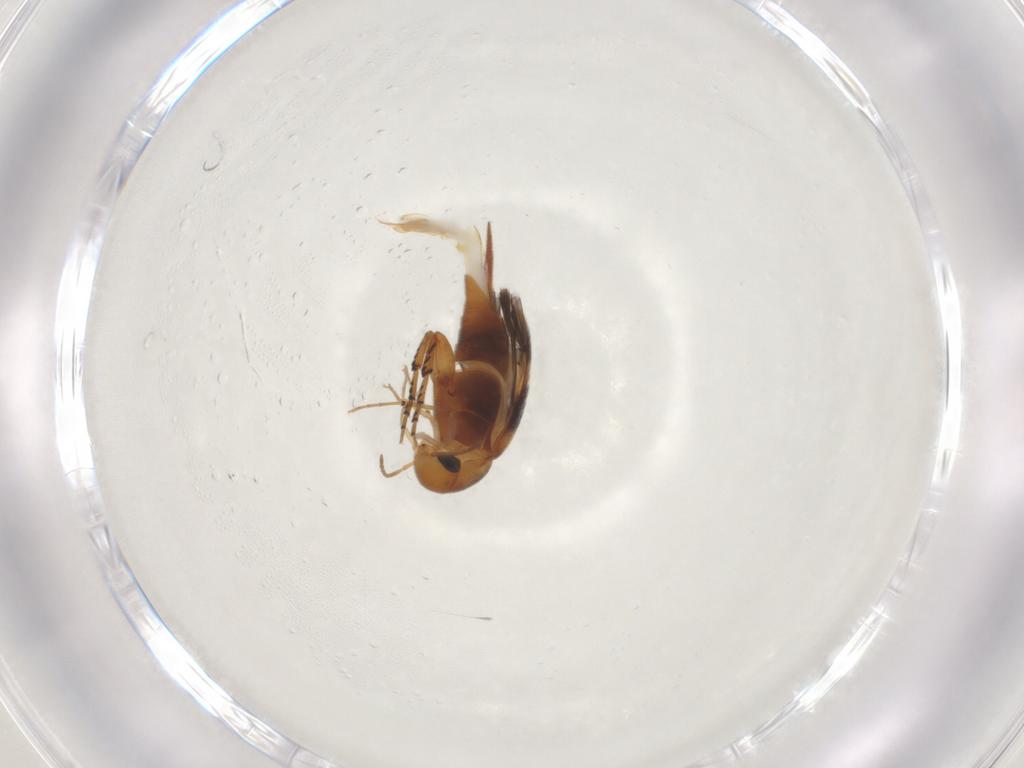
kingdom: Animalia
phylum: Arthropoda
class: Insecta
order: Coleoptera
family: Mordellidae
